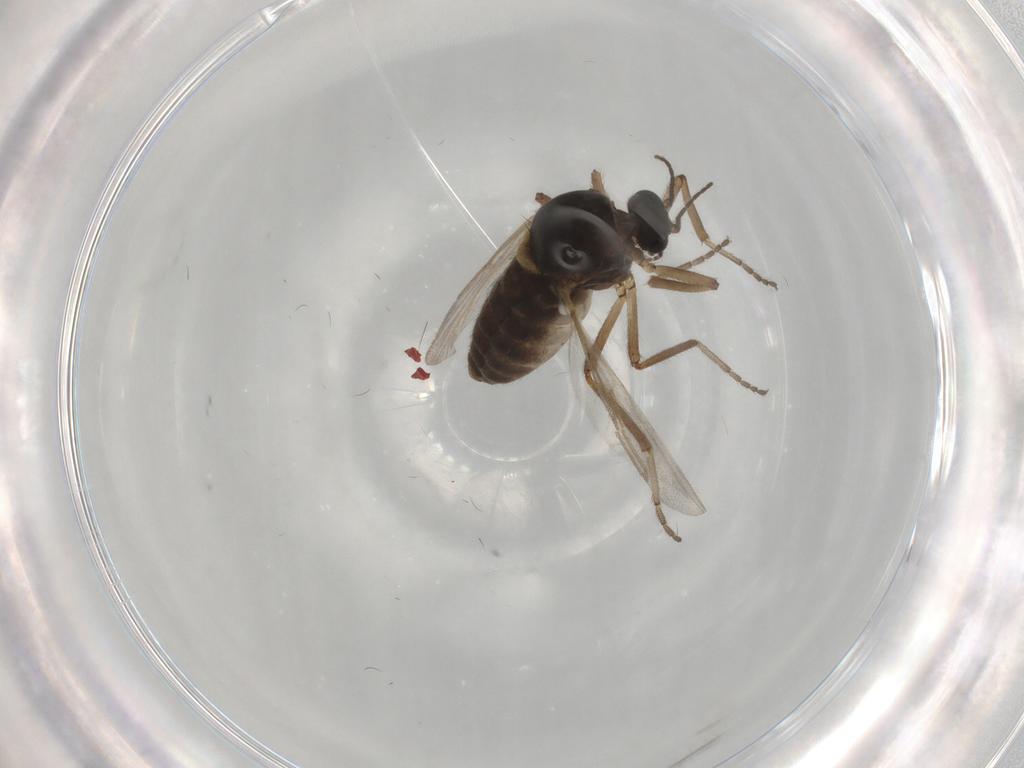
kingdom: Animalia
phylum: Arthropoda
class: Insecta
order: Diptera
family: Ceratopogonidae
